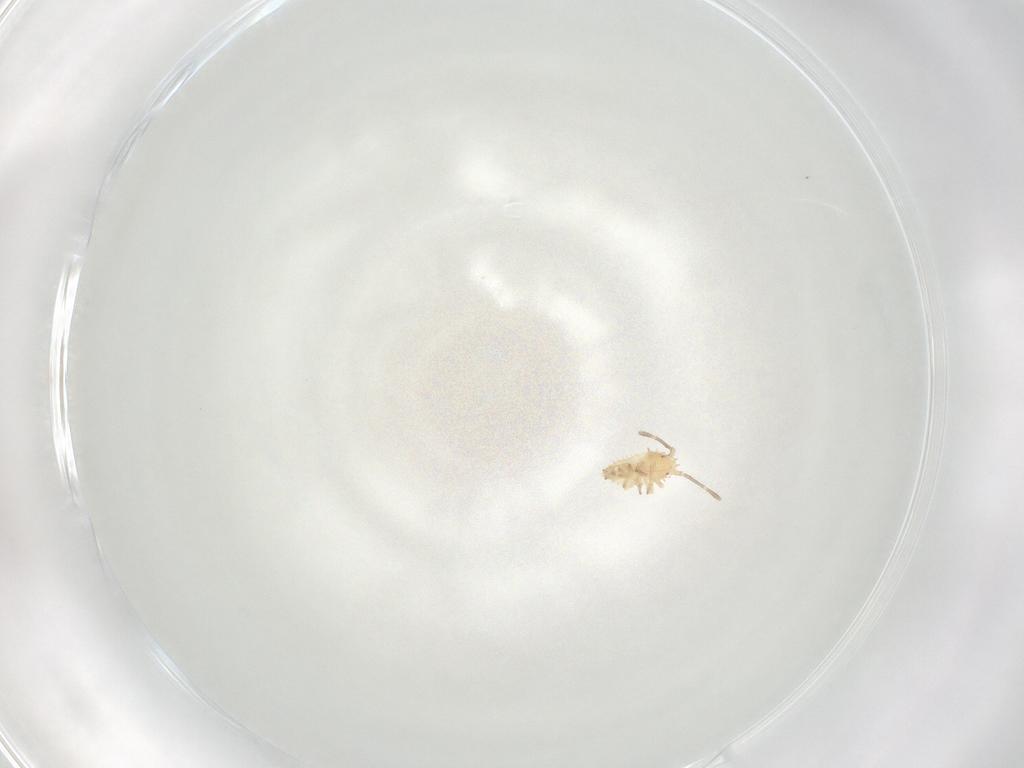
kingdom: Animalia
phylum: Arthropoda
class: Insecta
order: Hemiptera
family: Tingidae
